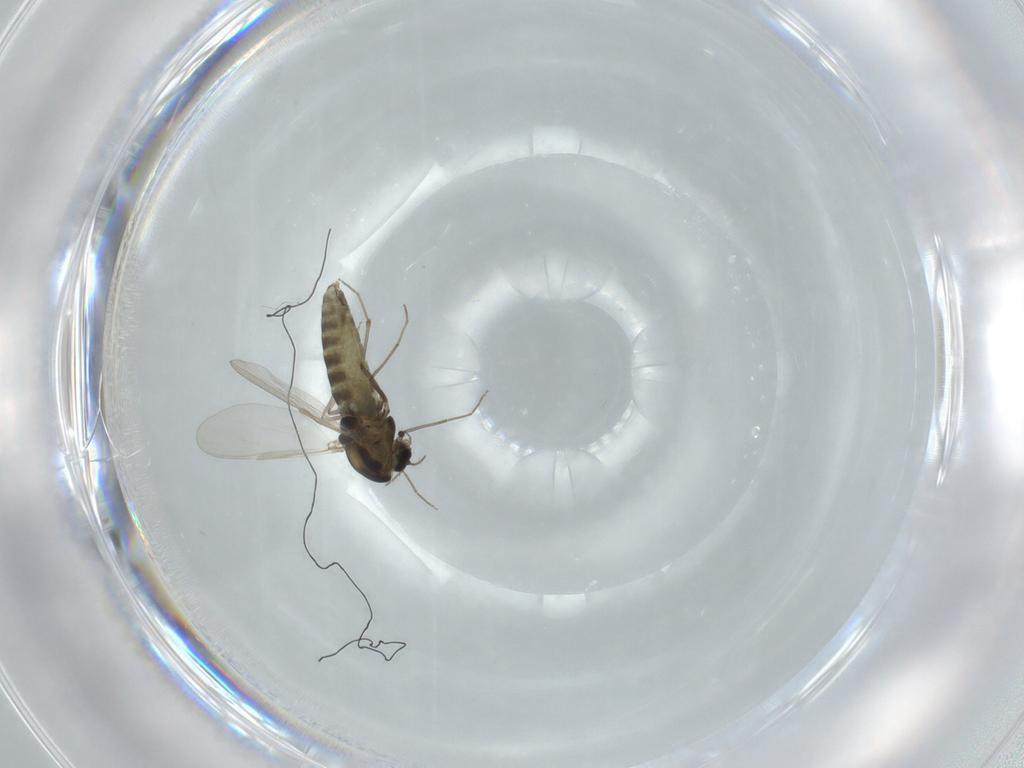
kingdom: Animalia
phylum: Arthropoda
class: Insecta
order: Diptera
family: Chironomidae
